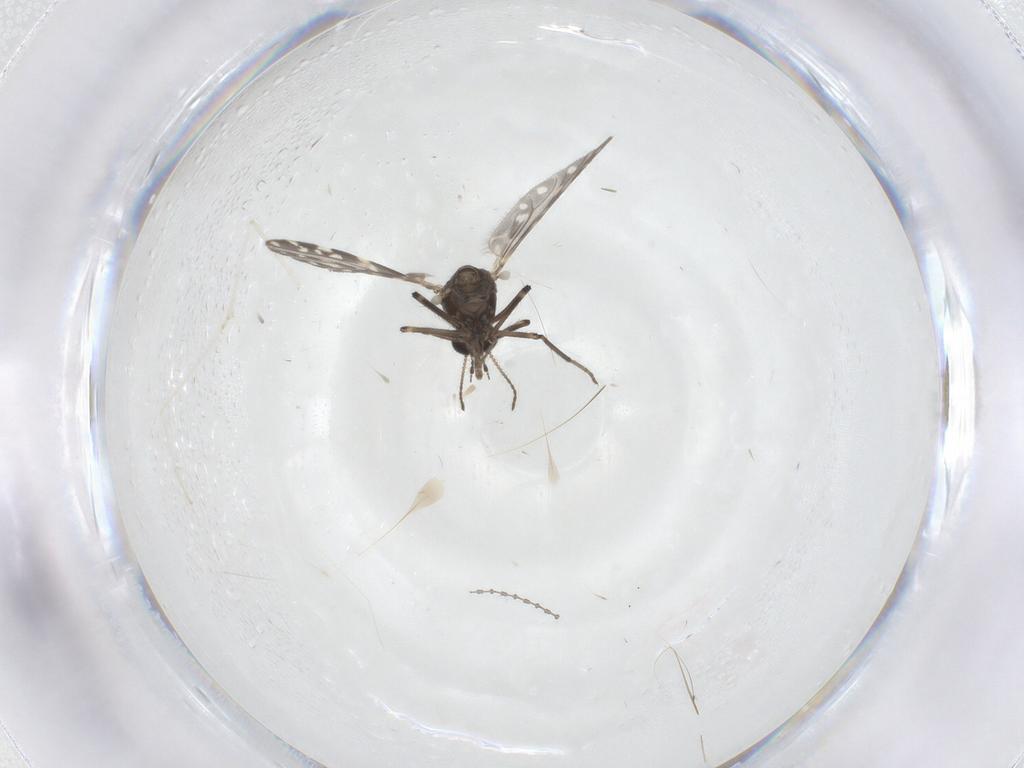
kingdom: Animalia
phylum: Arthropoda
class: Insecta
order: Diptera
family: Ceratopogonidae
